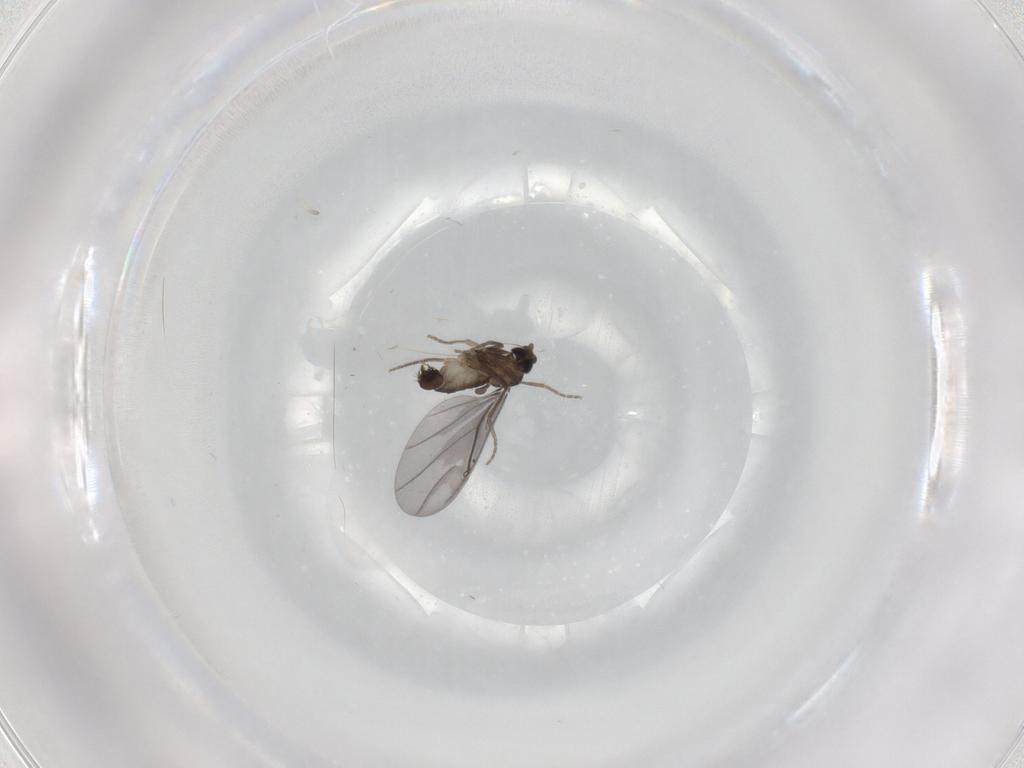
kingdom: Animalia
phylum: Arthropoda
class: Insecta
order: Diptera
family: Phoridae
